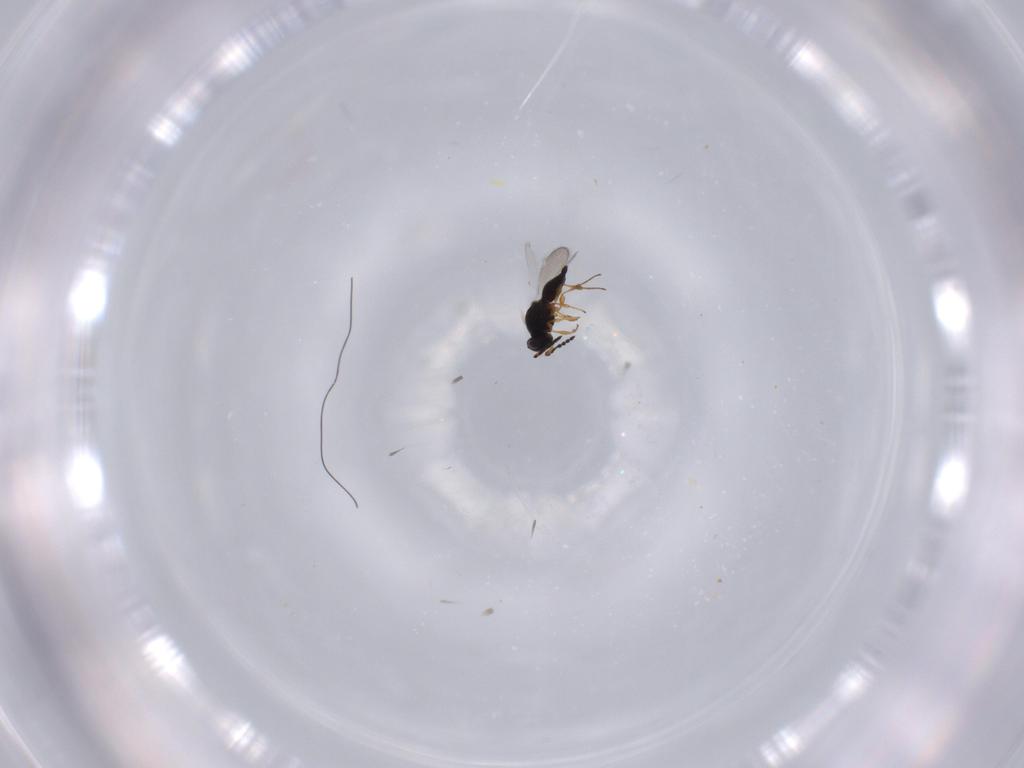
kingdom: Animalia
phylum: Arthropoda
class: Insecta
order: Hymenoptera
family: Platygastridae
